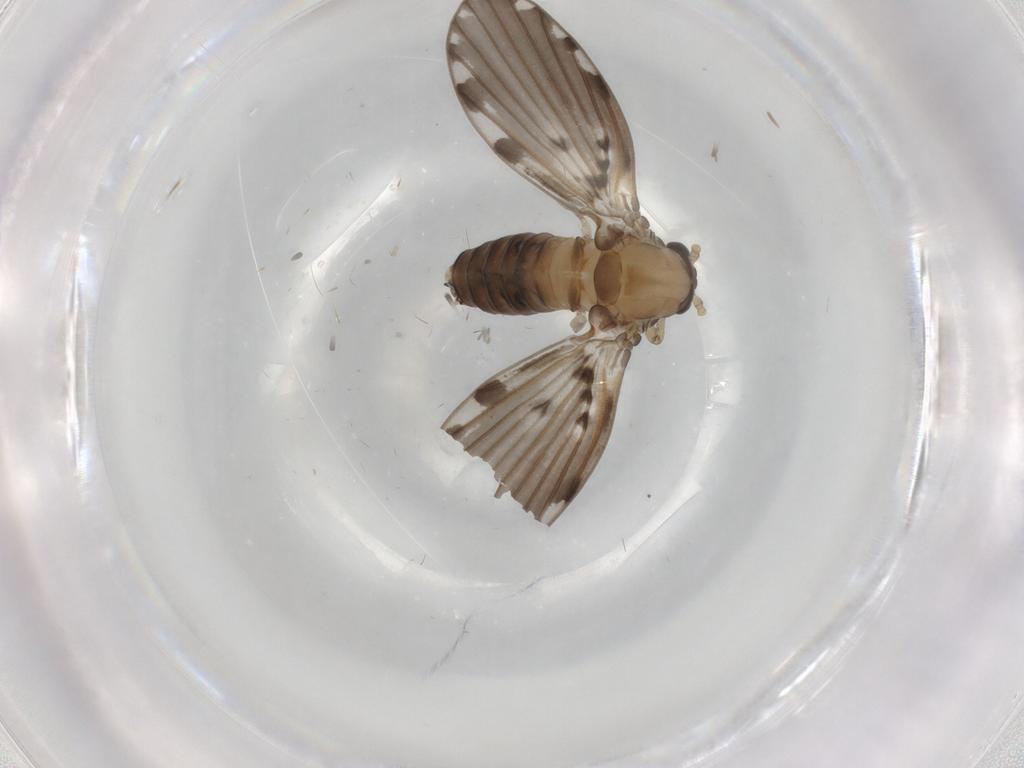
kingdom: Animalia
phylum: Arthropoda
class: Insecta
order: Diptera
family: Psychodidae
